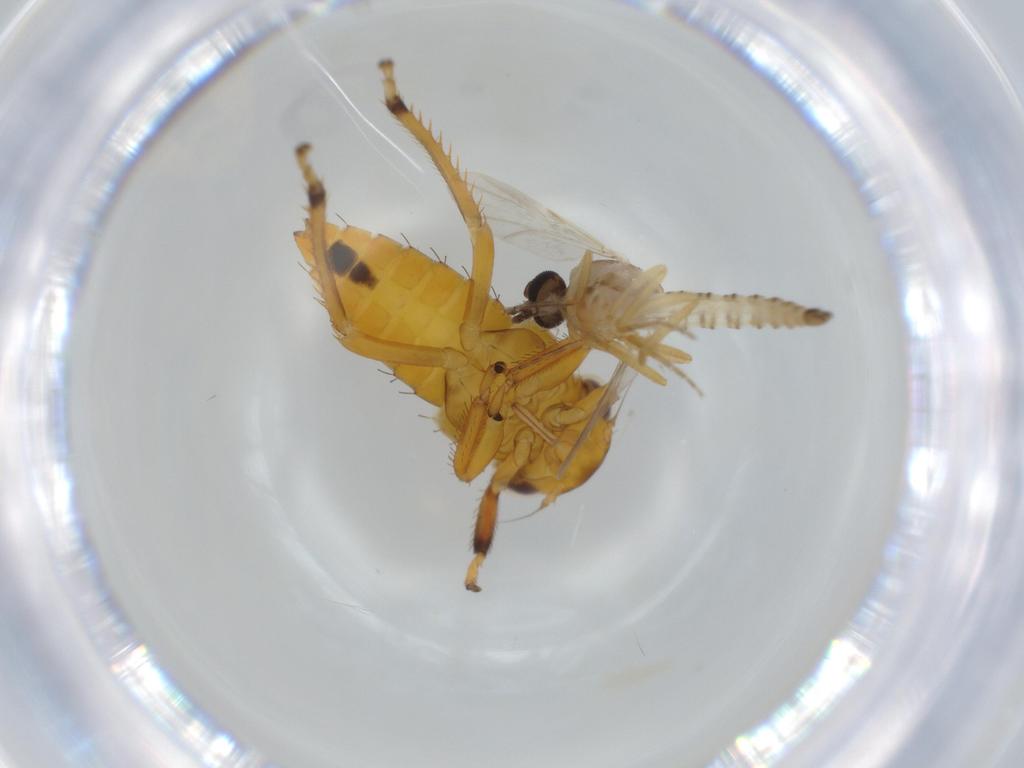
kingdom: Animalia
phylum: Arthropoda
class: Insecta
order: Diptera
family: Ceratopogonidae
